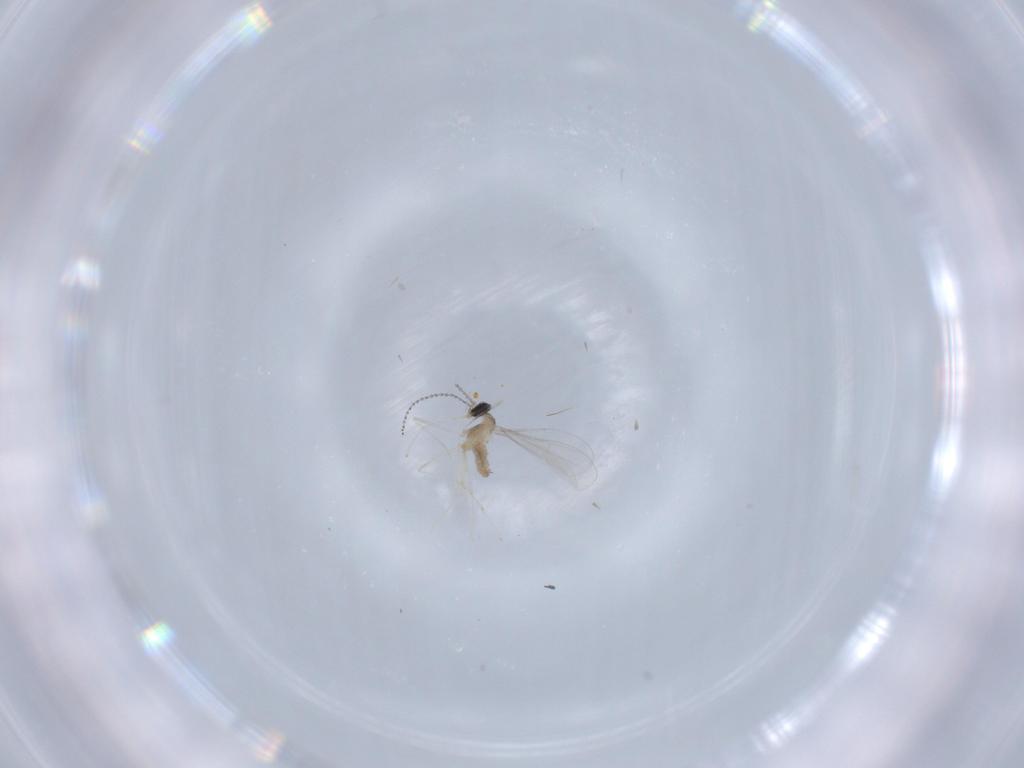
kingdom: Animalia
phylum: Arthropoda
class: Insecta
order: Diptera
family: Cecidomyiidae
